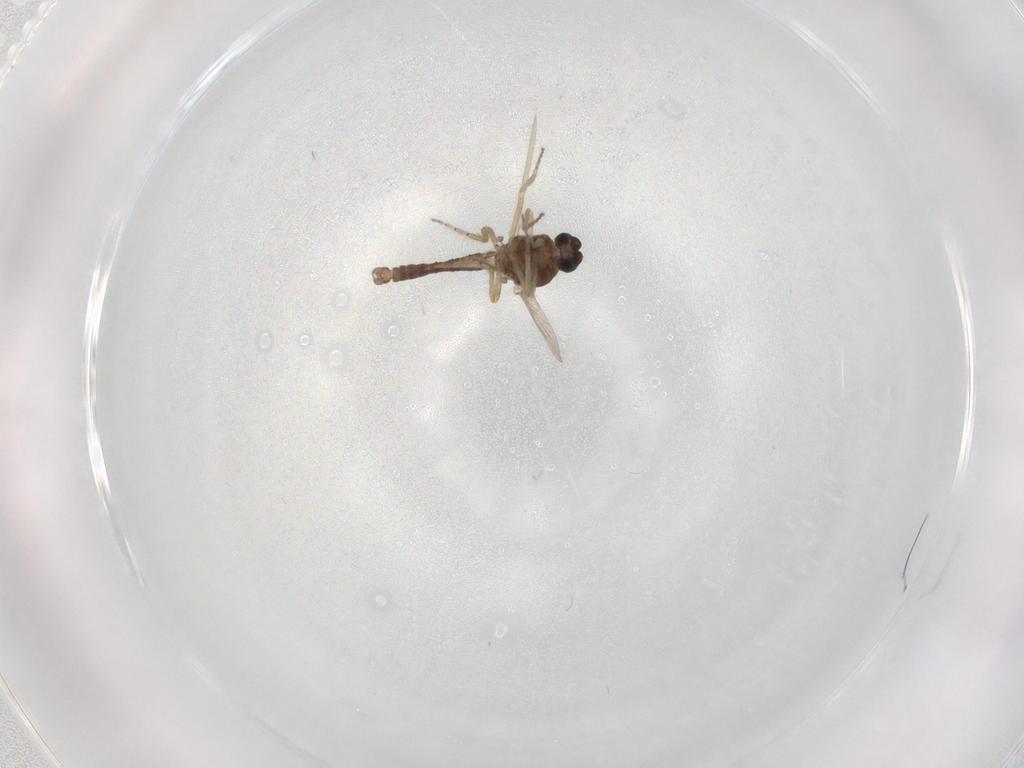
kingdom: Animalia
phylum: Arthropoda
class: Insecta
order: Diptera
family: Ceratopogonidae
